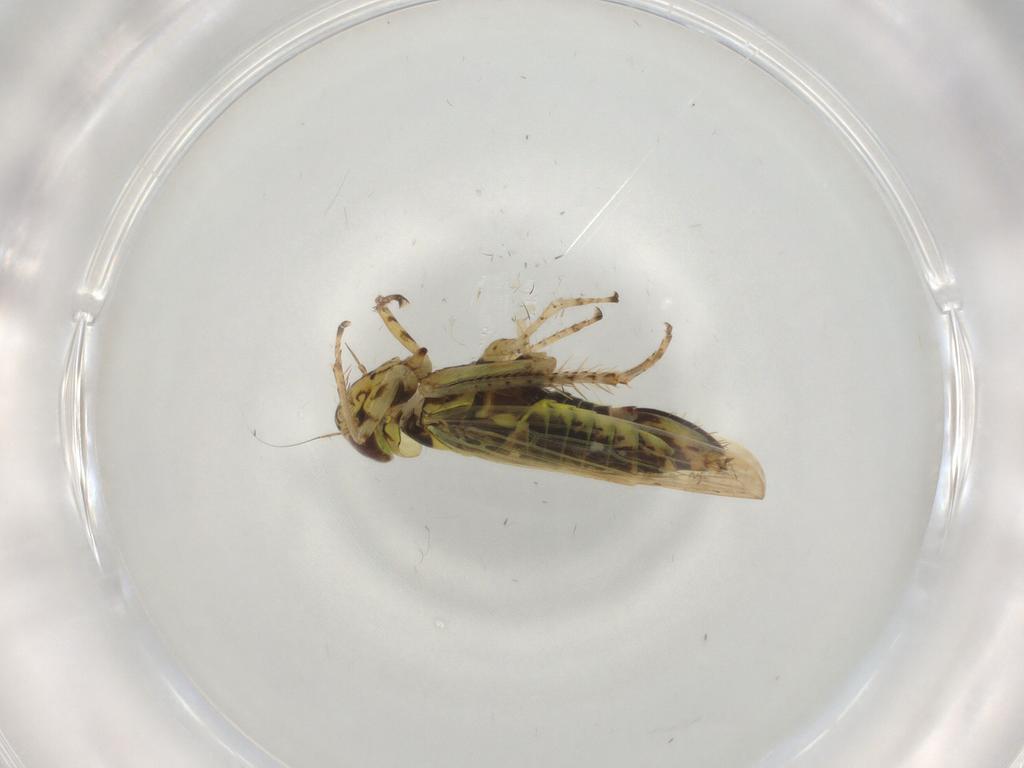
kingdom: Animalia
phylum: Arthropoda
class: Insecta
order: Hemiptera
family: Cicadellidae
